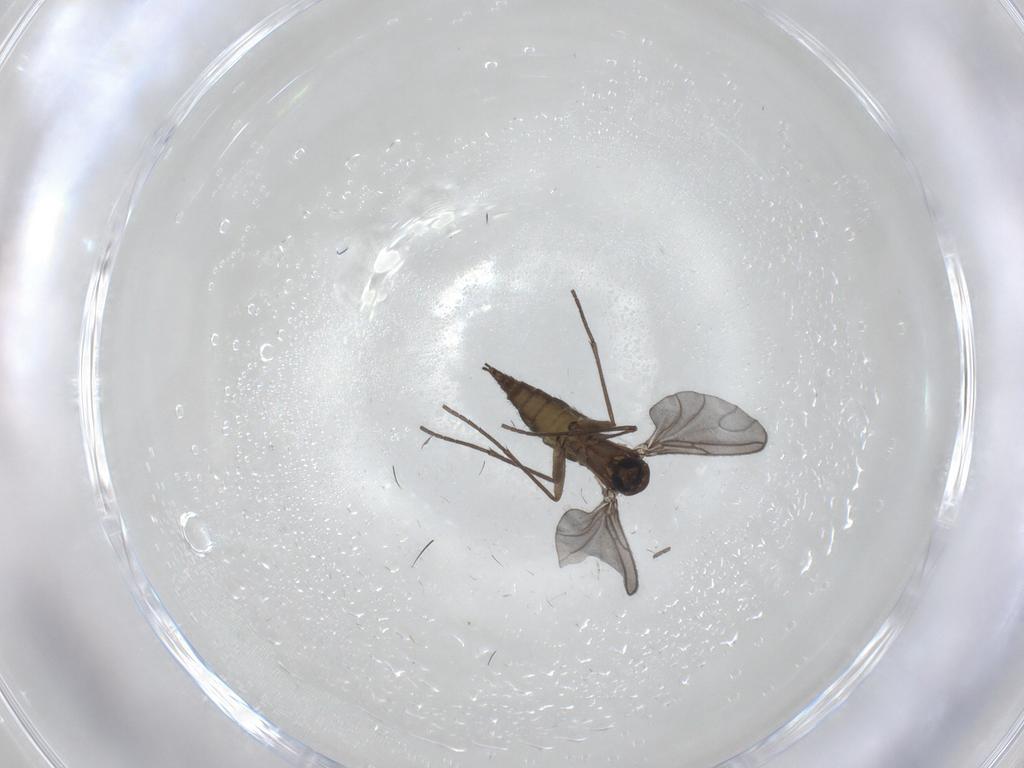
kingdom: Animalia
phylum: Arthropoda
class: Insecta
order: Diptera
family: Sciaridae
